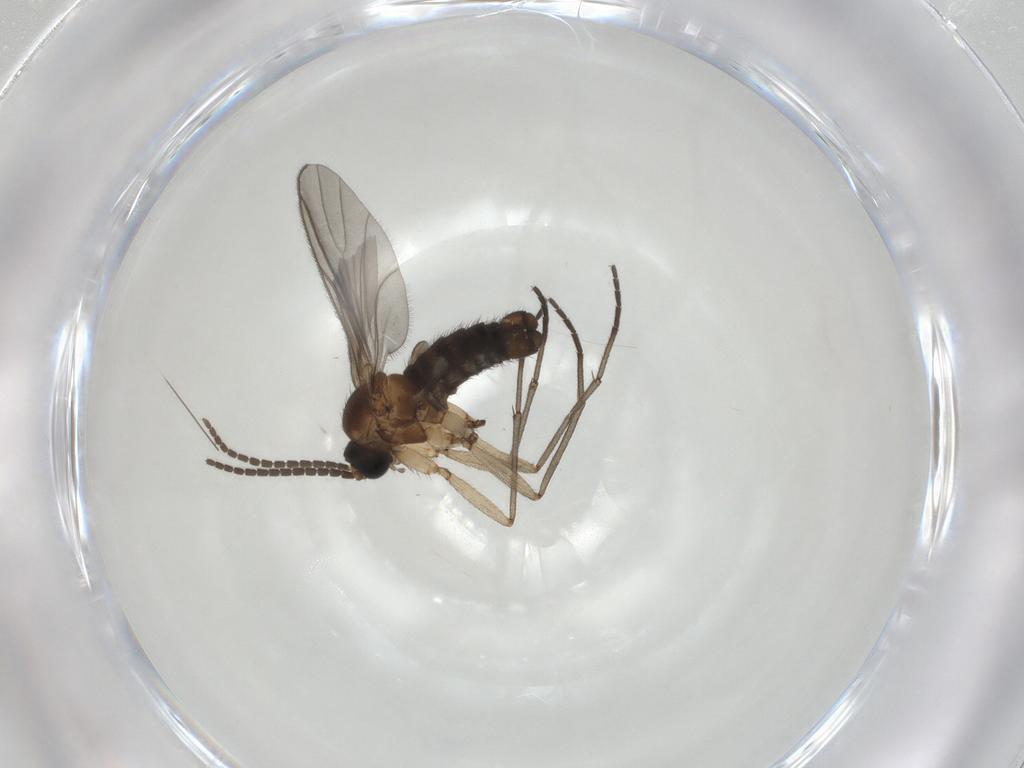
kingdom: Animalia
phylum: Arthropoda
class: Insecta
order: Diptera
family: Sciaridae
